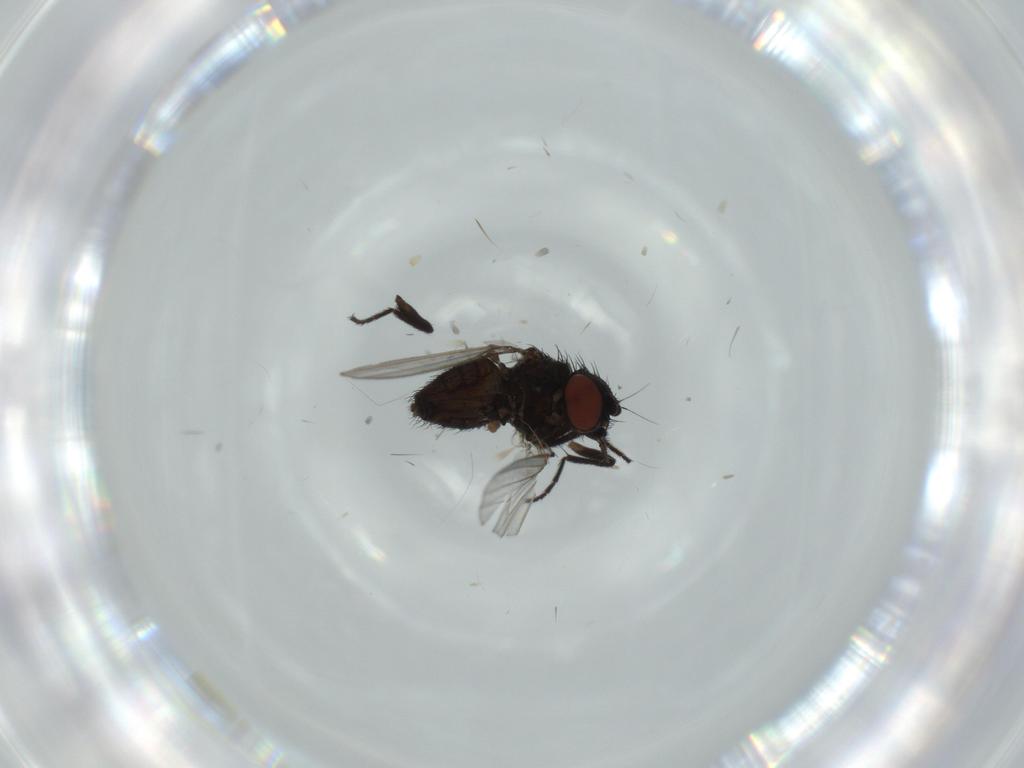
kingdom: Animalia
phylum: Arthropoda
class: Insecta
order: Diptera
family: Milichiidae
